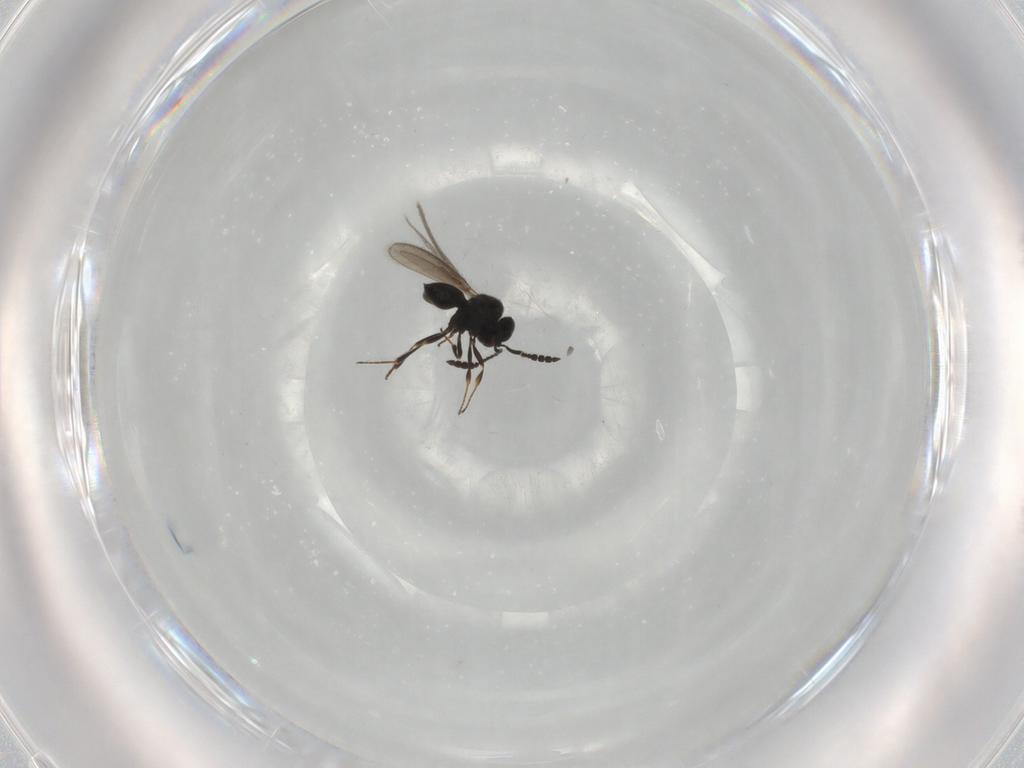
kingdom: Animalia
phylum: Arthropoda
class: Insecta
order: Hymenoptera
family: Scelionidae
